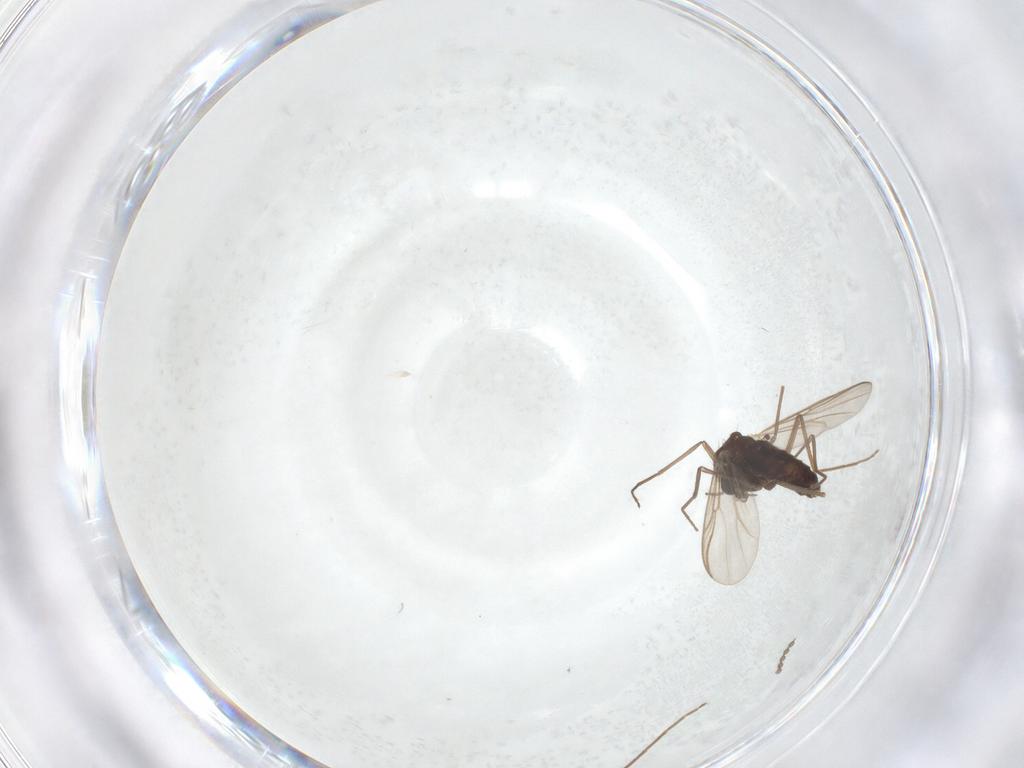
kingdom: Animalia
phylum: Arthropoda
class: Insecta
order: Diptera
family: Chironomidae
